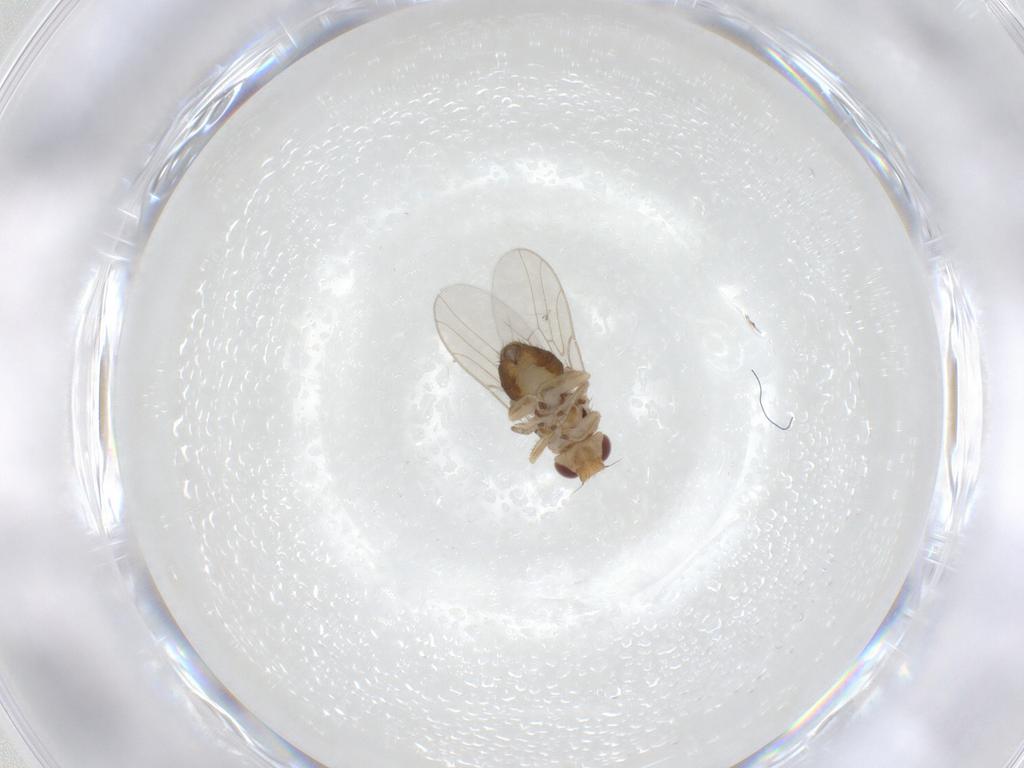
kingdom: Animalia
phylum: Arthropoda
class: Insecta
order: Diptera
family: Chloropidae
